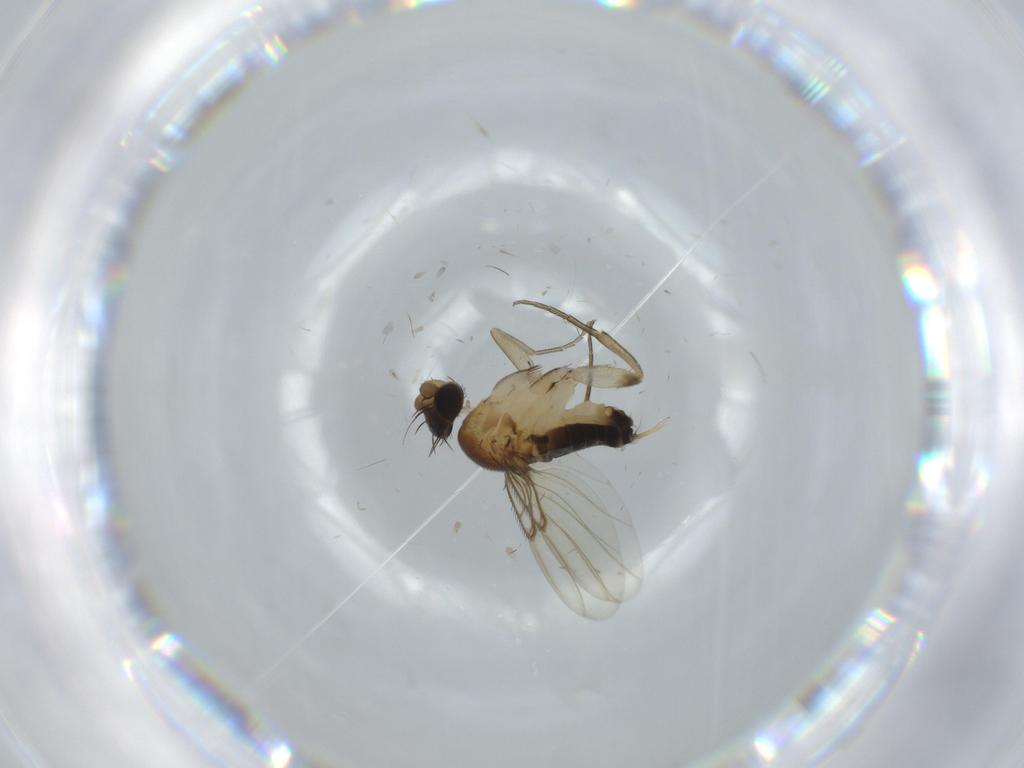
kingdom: Animalia
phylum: Arthropoda
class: Insecta
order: Diptera
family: Phoridae
